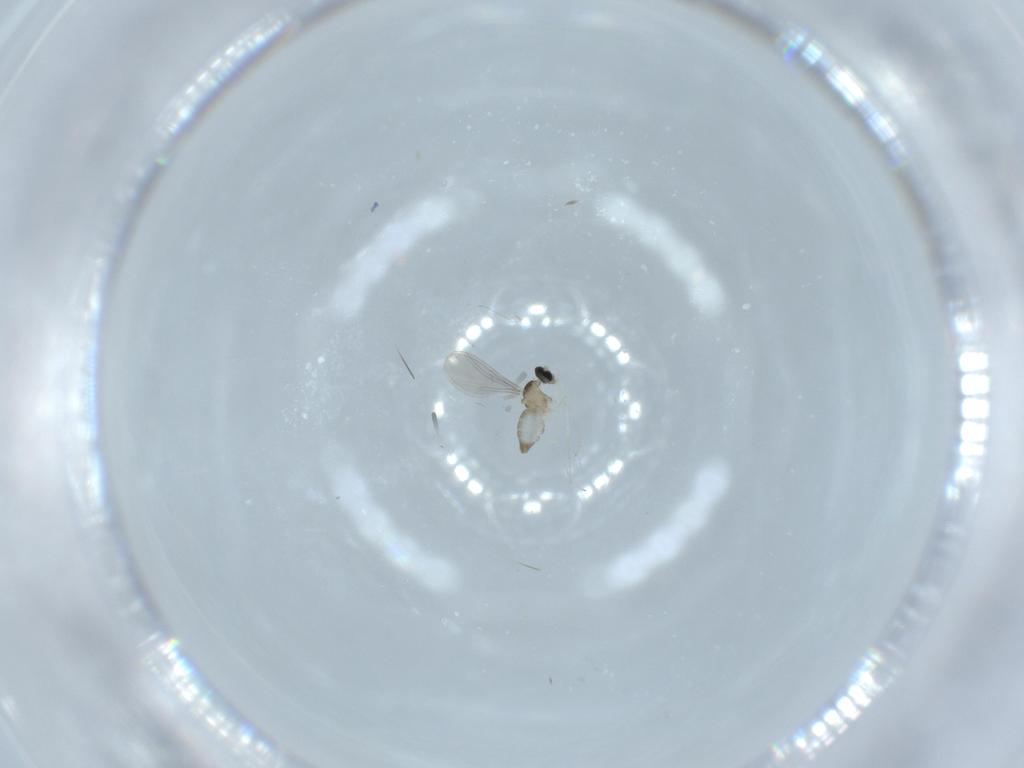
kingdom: Animalia
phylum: Arthropoda
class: Insecta
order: Diptera
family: Sciaridae
